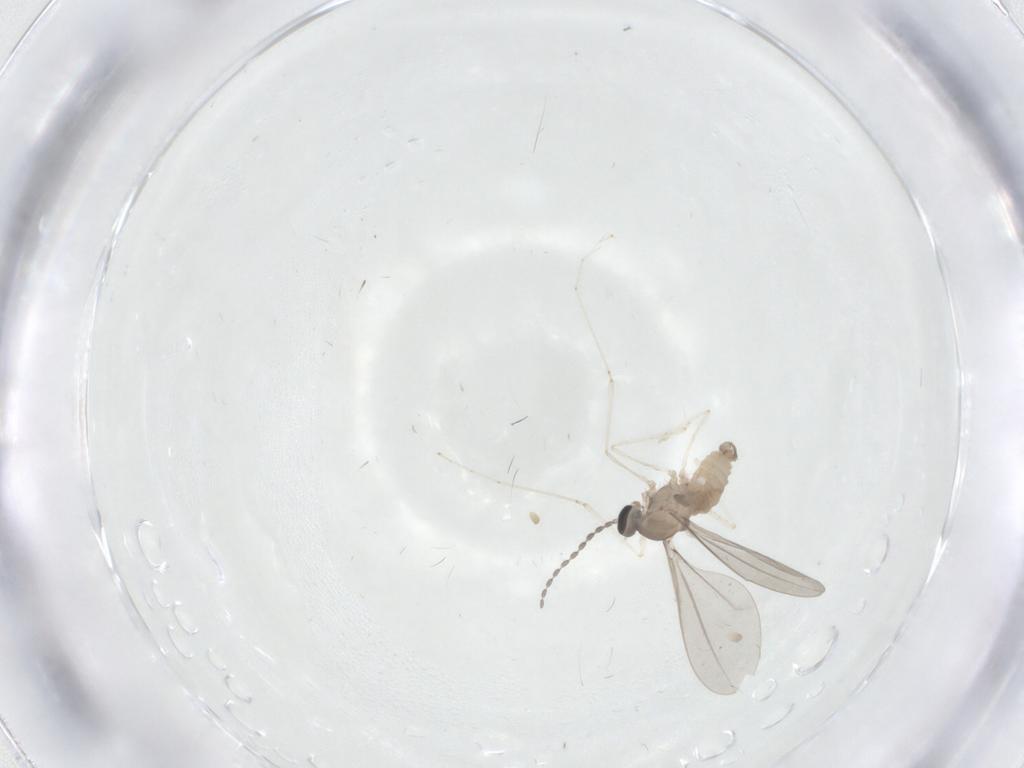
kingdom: Animalia
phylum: Arthropoda
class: Insecta
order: Diptera
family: Cecidomyiidae
